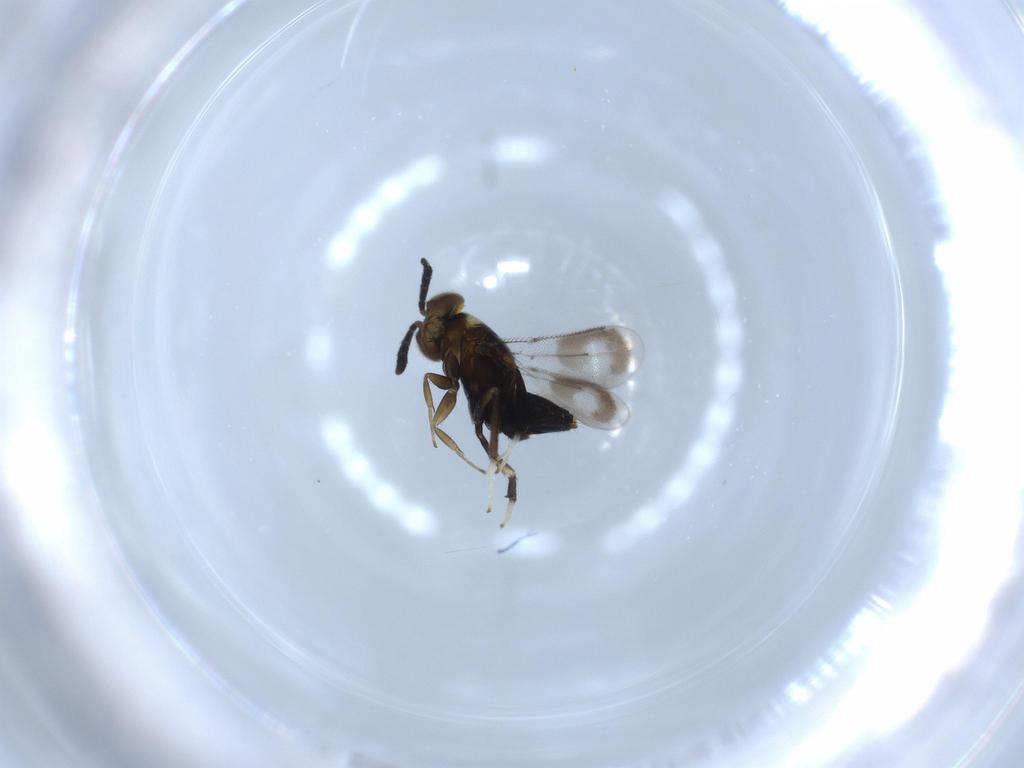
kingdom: Animalia
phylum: Arthropoda
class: Insecta
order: Hymenoptera
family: Aphelinidae
